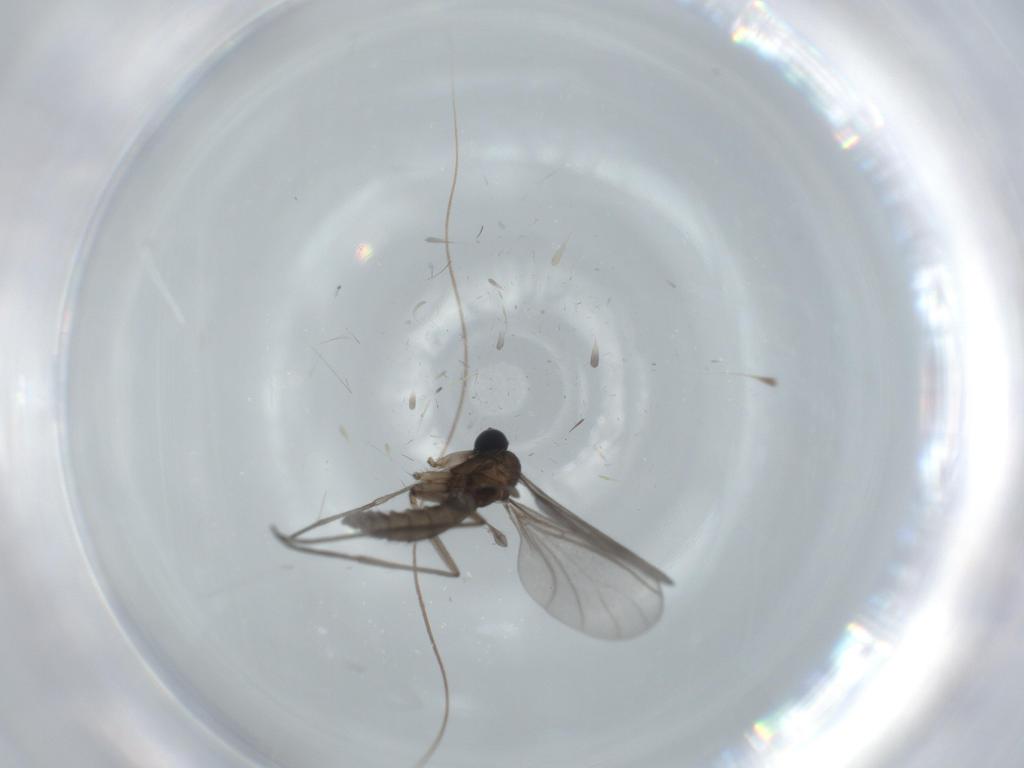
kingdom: Animalia
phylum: Arthropoda
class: Insecta
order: Diptera
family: Sciaridae
